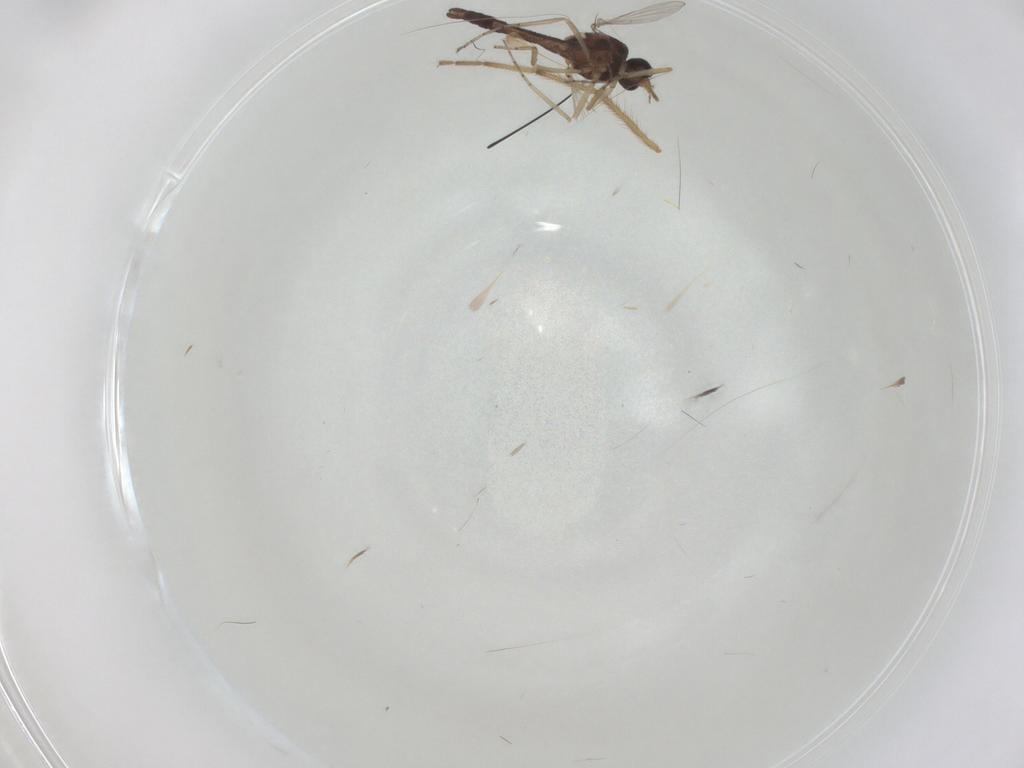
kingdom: Animalia
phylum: Arthropoda
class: Insecta
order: Diptera
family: Ceratopogonidae
